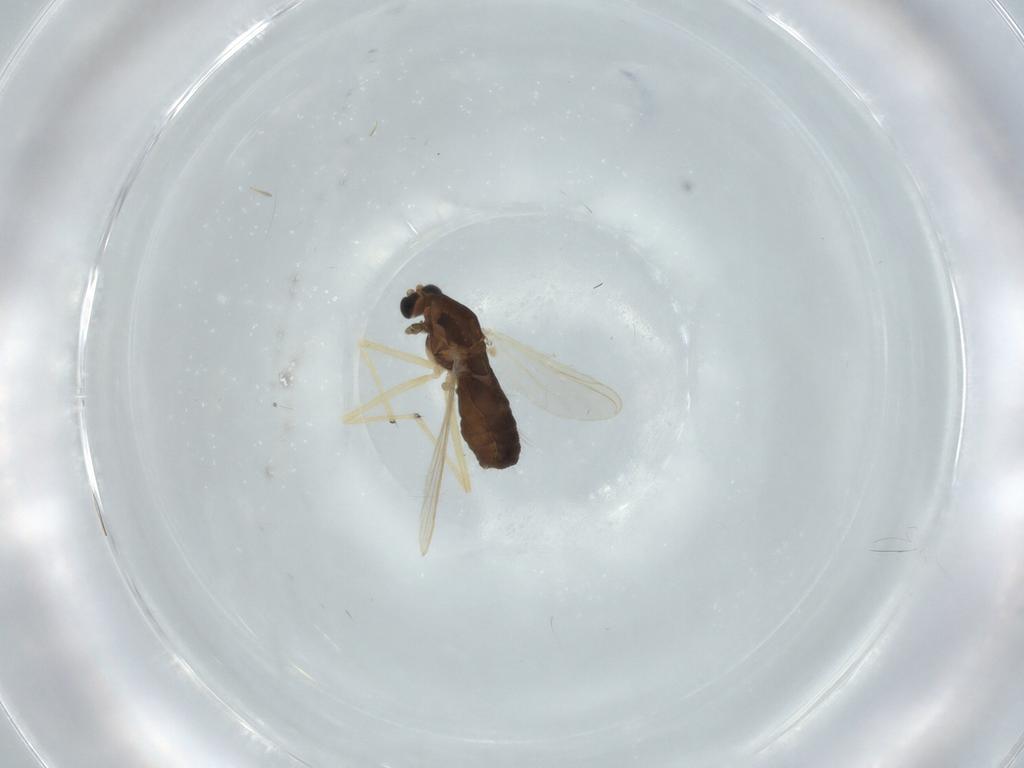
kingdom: Animalia
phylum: Arthropoda
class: Insecta
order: Diptera
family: Chironomidae
